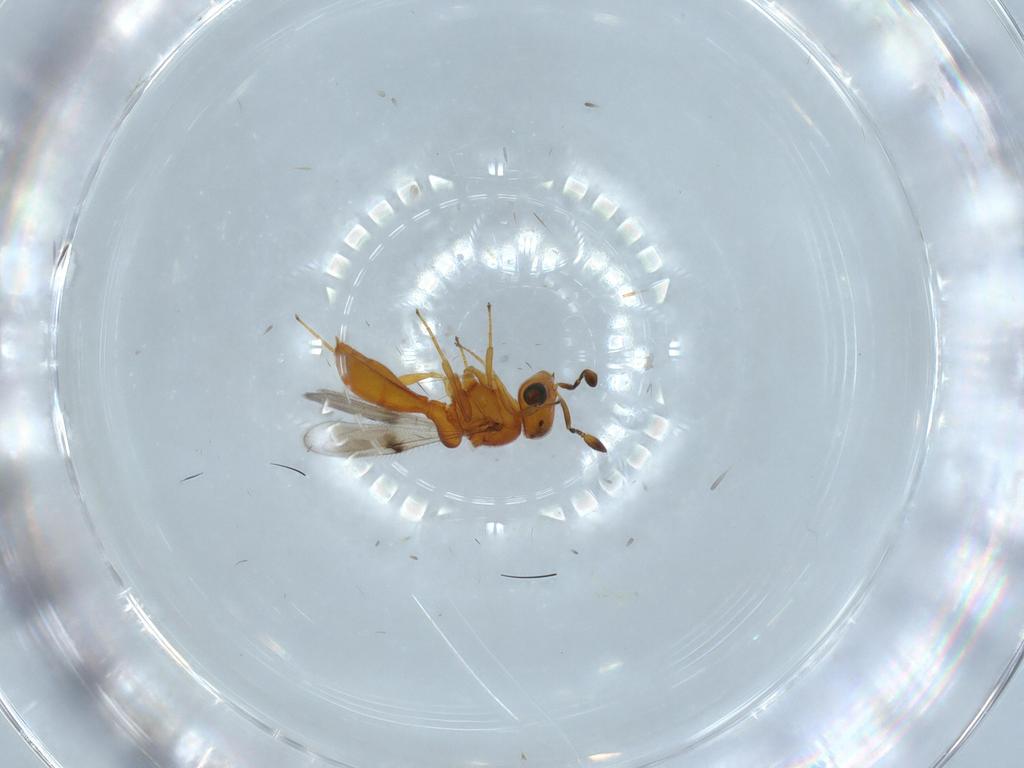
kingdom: Animalia
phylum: Arthropoda
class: Insecta
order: Hymenoptera
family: Scelionidae
